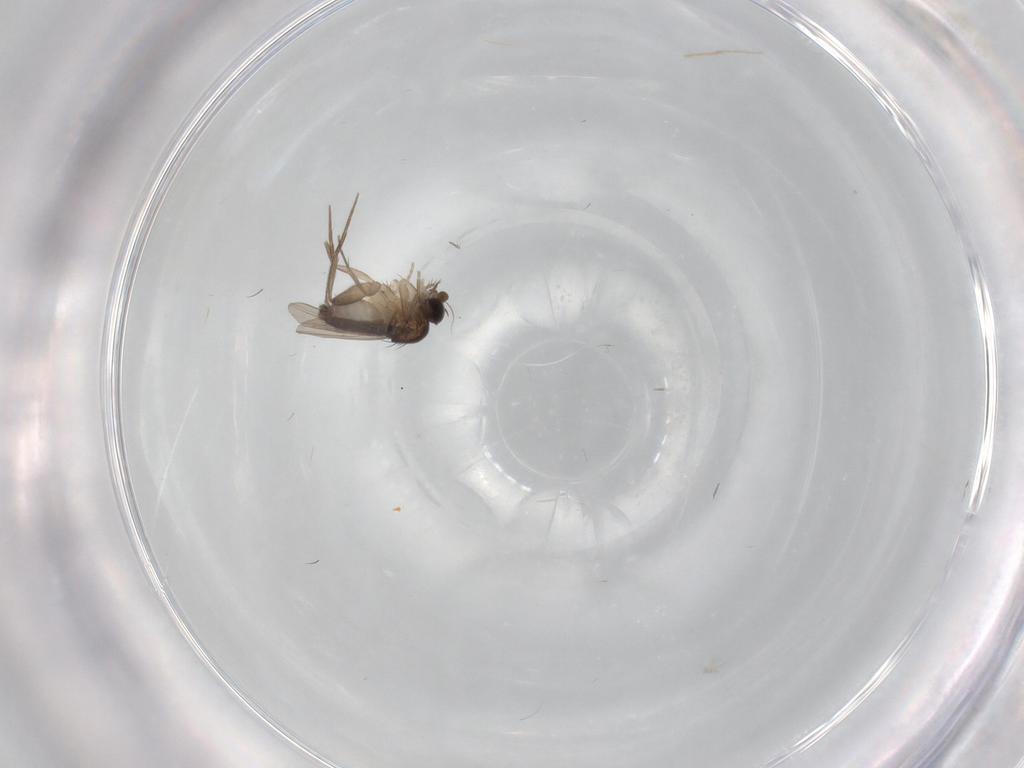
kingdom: Animalia
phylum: Arthropoda
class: Insecta
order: Diptera
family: Phoridae
